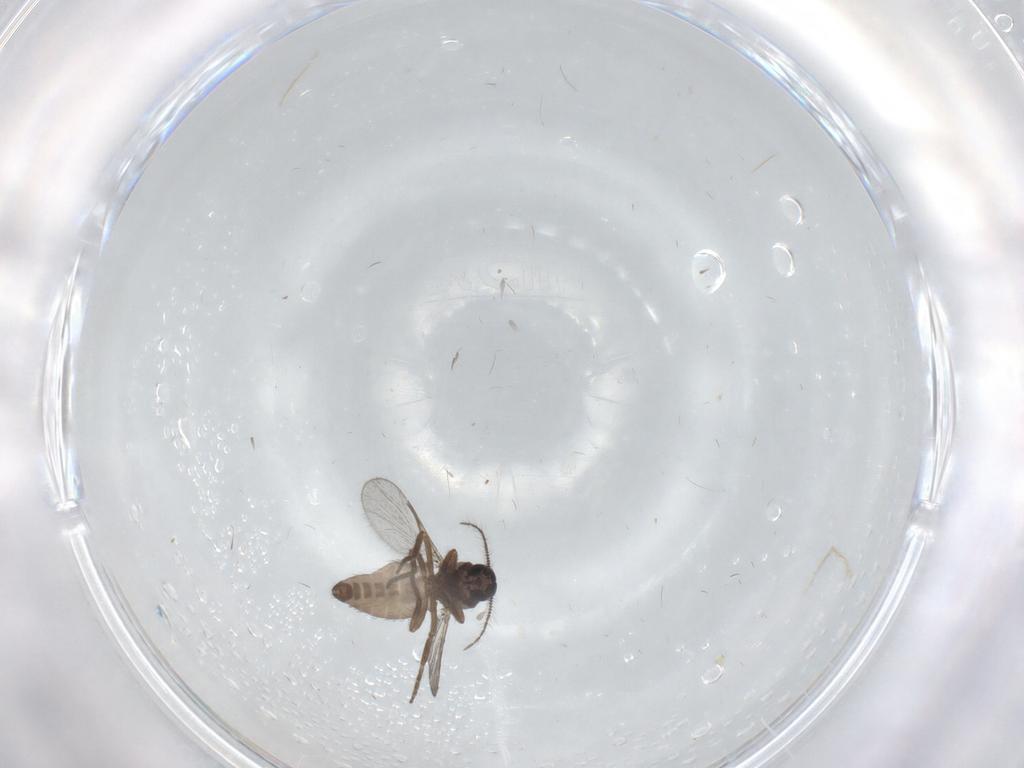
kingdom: Animalia
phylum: Arthropoda
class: Insecta
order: Diptera
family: Ceratopogonidae
